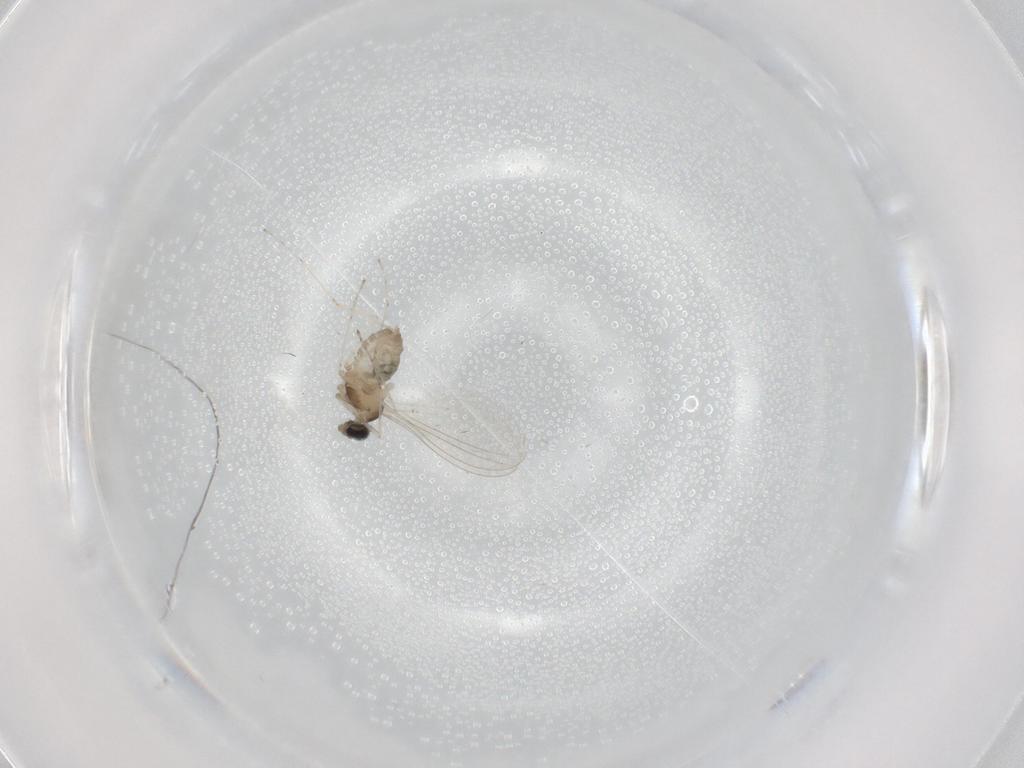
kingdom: Animalia
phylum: Arthropoda
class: Insecta
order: Diptera
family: Cecidomyiidae
